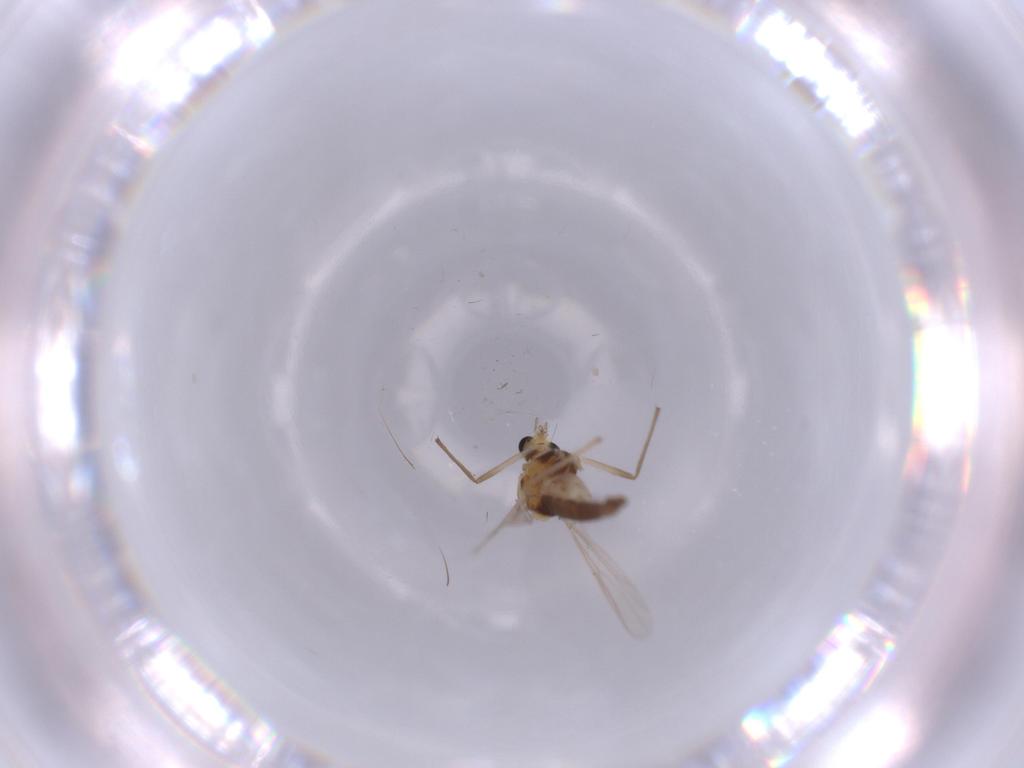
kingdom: Animalia
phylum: Arthropoda
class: Insecta
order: Diptera
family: Chironomidae
